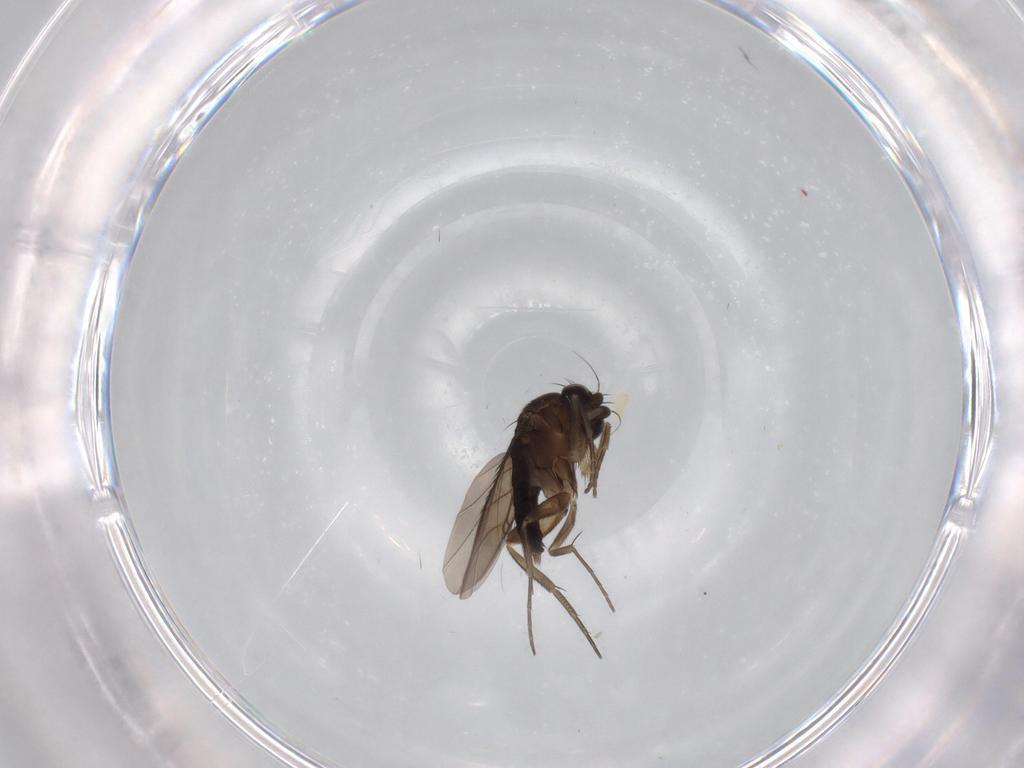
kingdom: Animalia
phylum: Arthropoda
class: Insecta
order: Diptera
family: Phoridae
